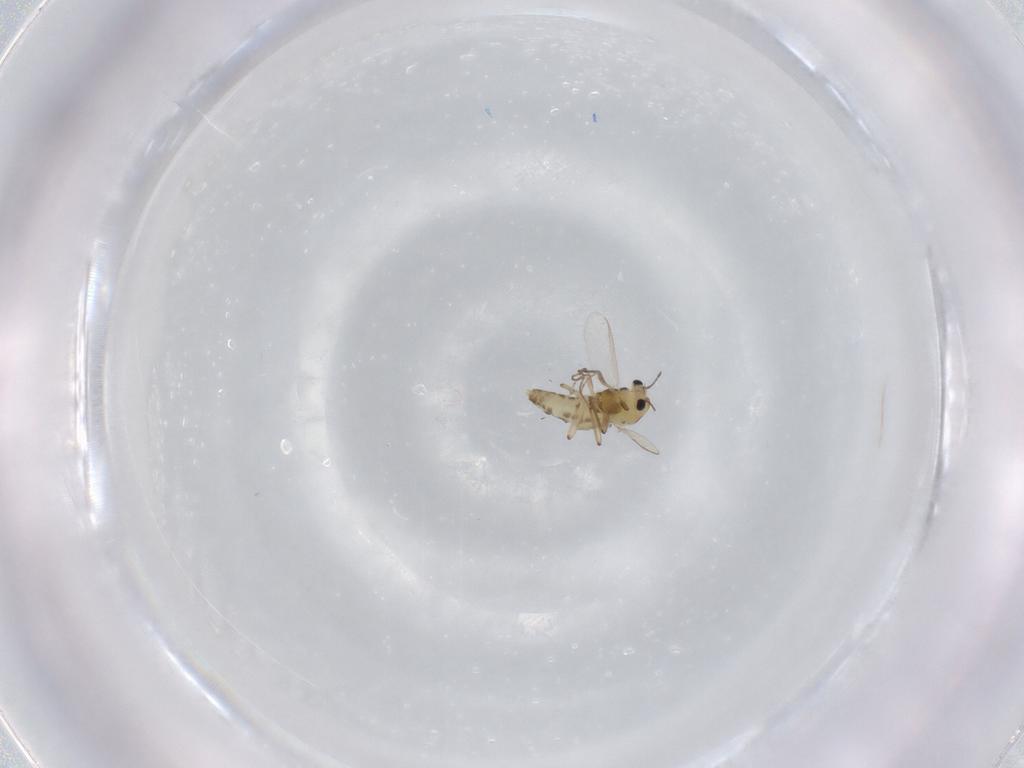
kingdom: Animalia
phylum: Arthropoda
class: Insecta
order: Diptera
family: Chironomidae
